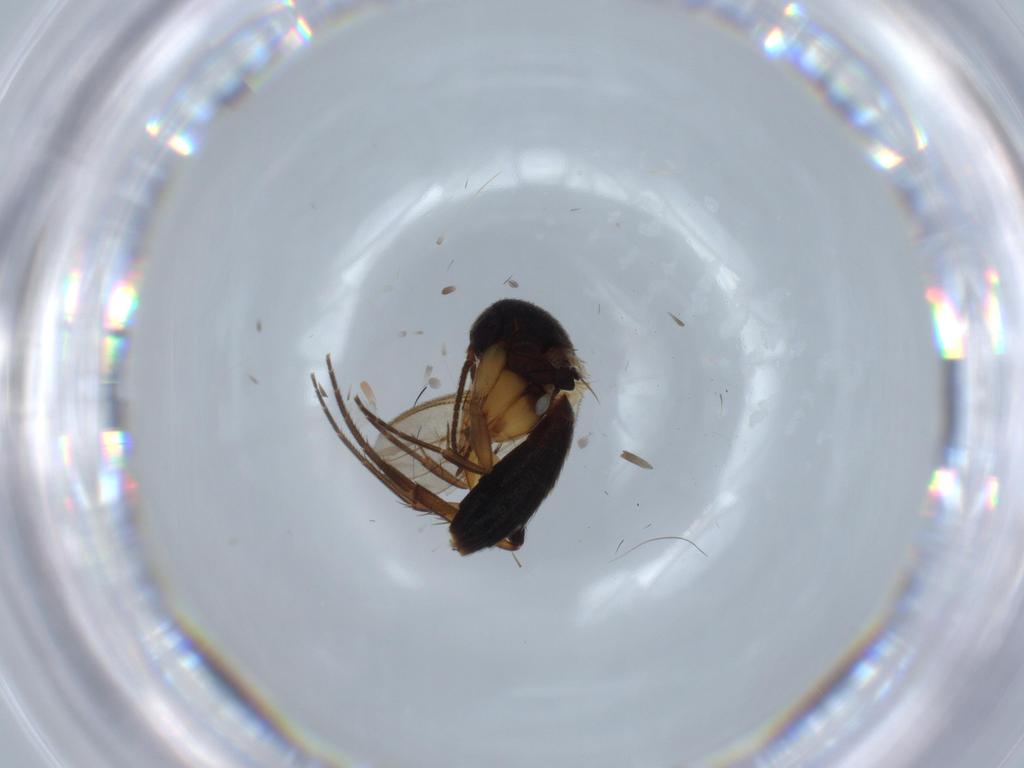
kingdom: Animalia
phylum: Arthropoda
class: Insecta
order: Diptera
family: Mycetophilidae
